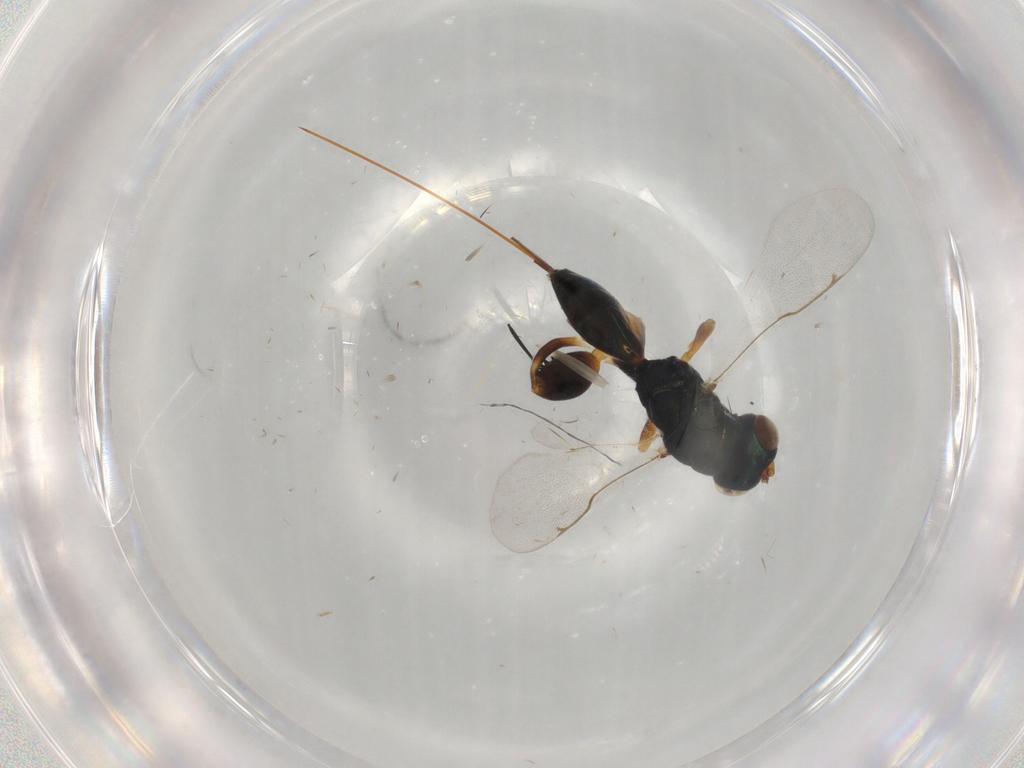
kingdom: Animalia
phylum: Arthropoda
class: Insecta
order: Hymenoptera
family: Torymidae
